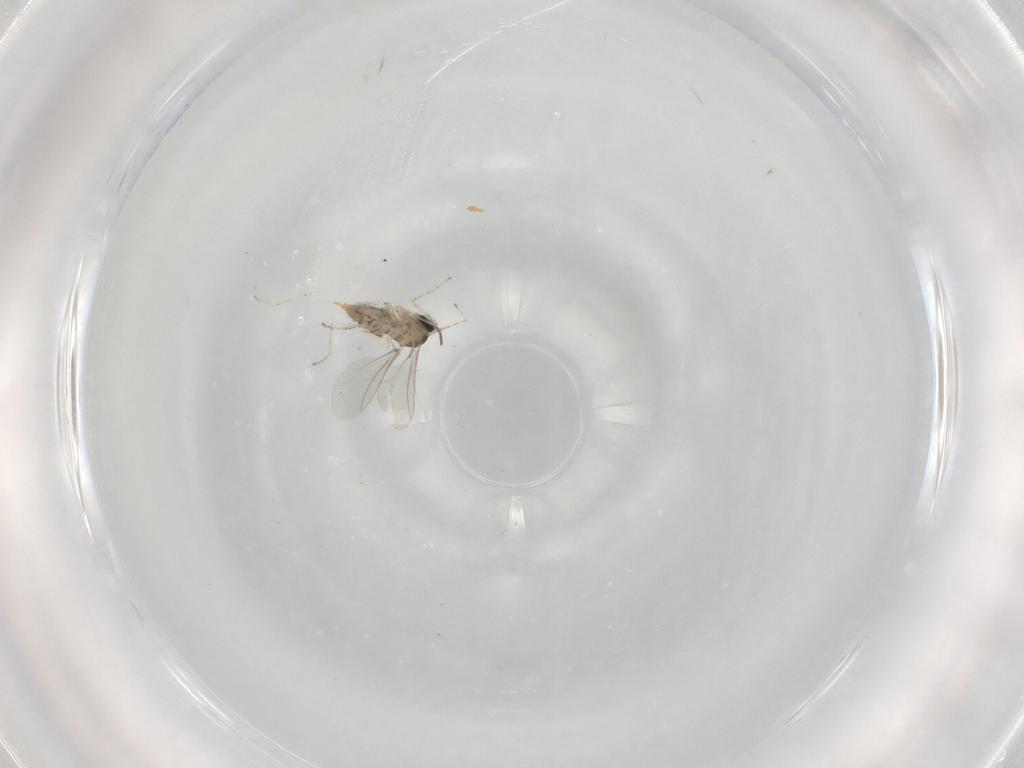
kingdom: Animalia
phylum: Arthropoda
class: Insecta
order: Diptera
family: Cecidomyiidae
